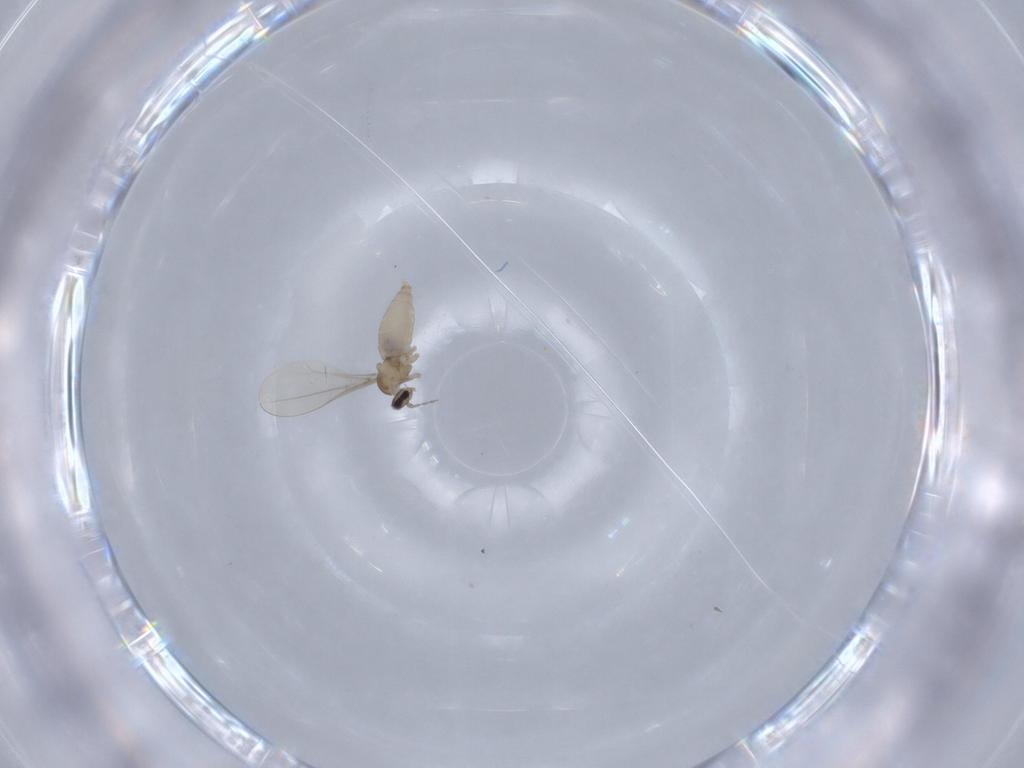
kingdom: Animalia
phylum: Arthropoda
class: Insecta
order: Diptera
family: Cecidomyiidae
